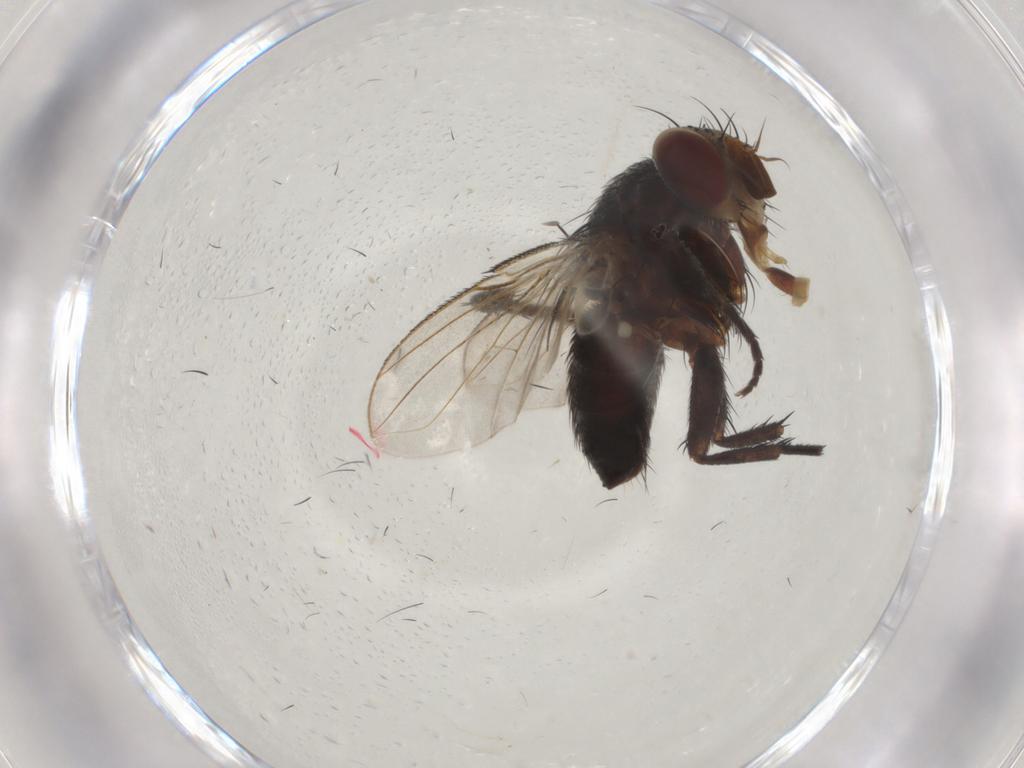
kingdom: Animalia
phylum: Arthropoda
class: Insecta
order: Diptera
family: Tachinidae
